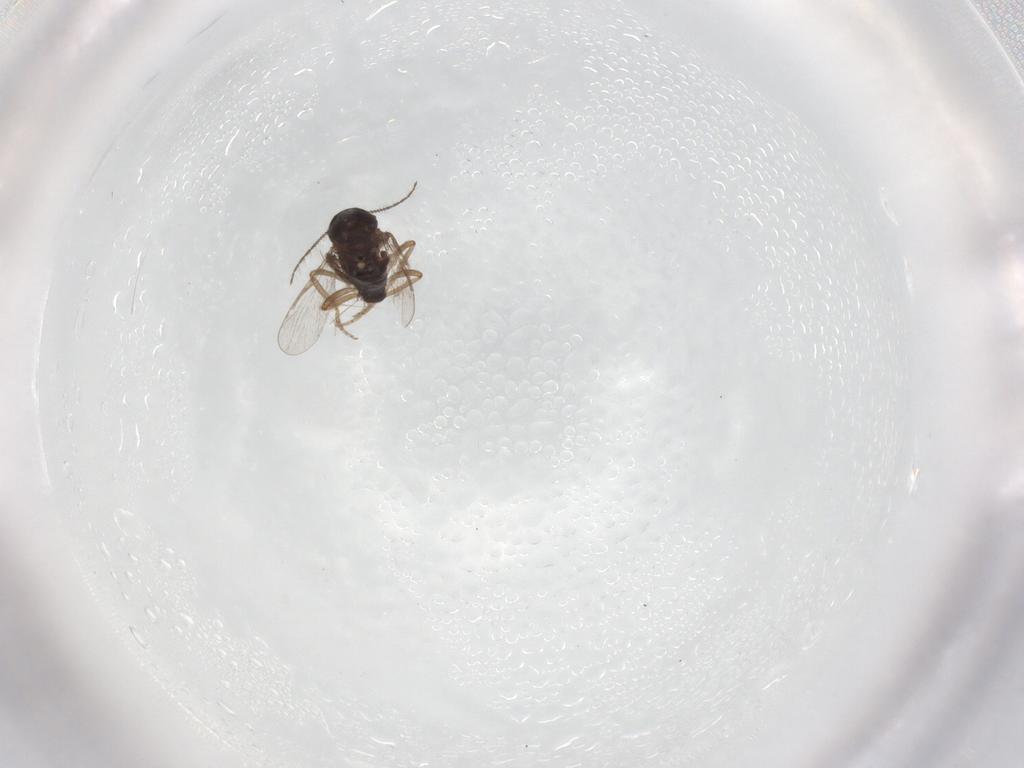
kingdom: Animalia
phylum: Arthropoda
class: Insecta
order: Diptera
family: Ceratopogonidae
